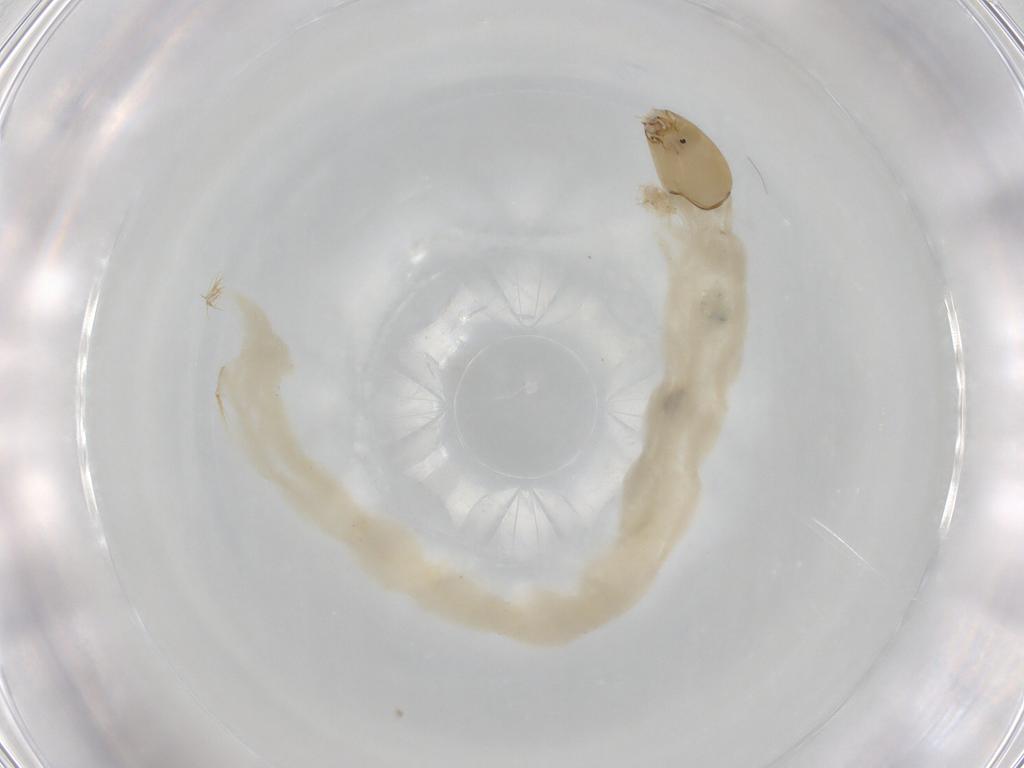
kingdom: Animalia
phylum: Arthropoda
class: Insecta
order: Diptera
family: Chironomidae
